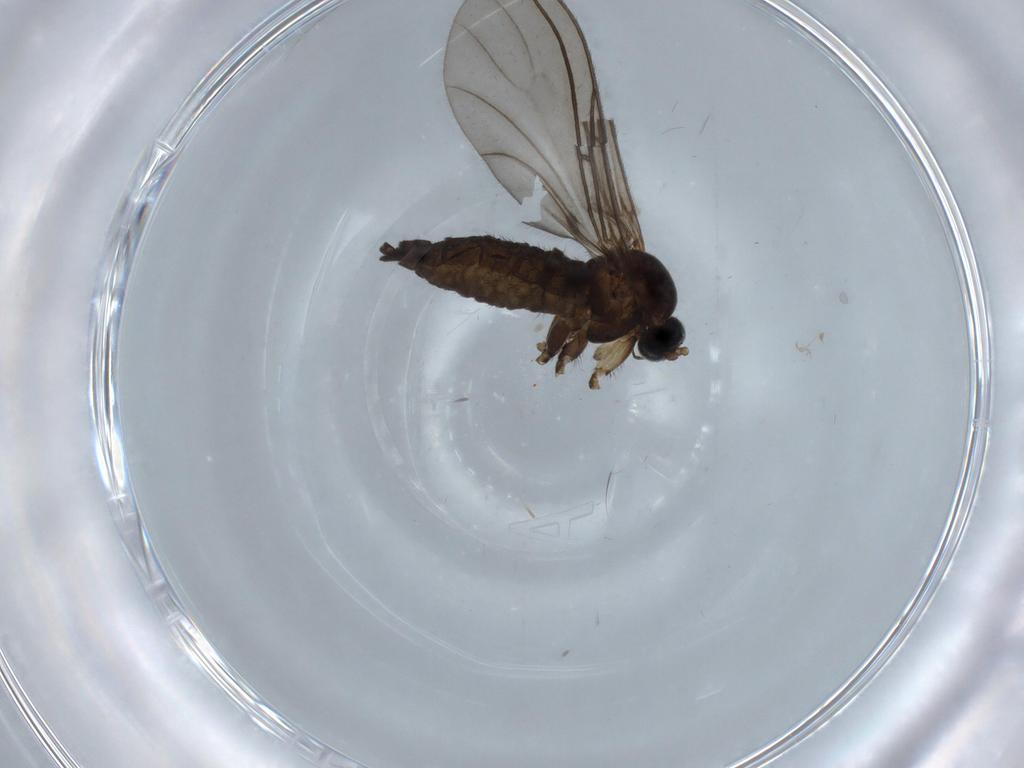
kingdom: Animalia
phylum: Arthropoda
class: Insecta
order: Diptera
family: Sciaridae
